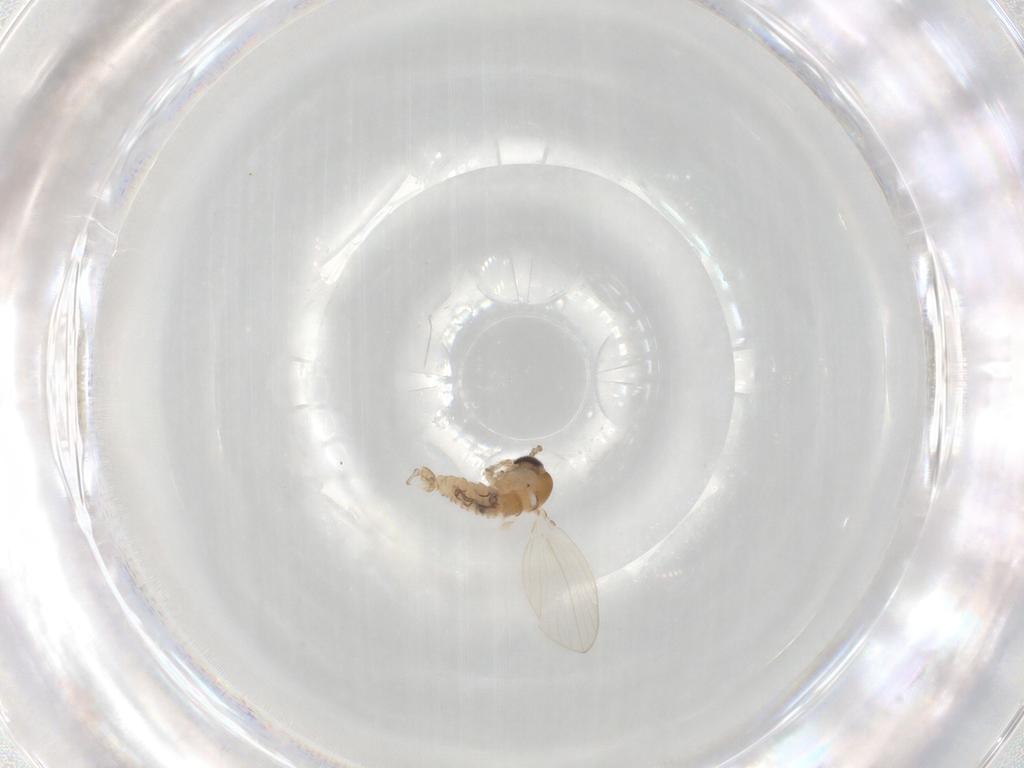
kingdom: Animalia
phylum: Arthropoda
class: Insecta
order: Diptera
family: Psychodidae
